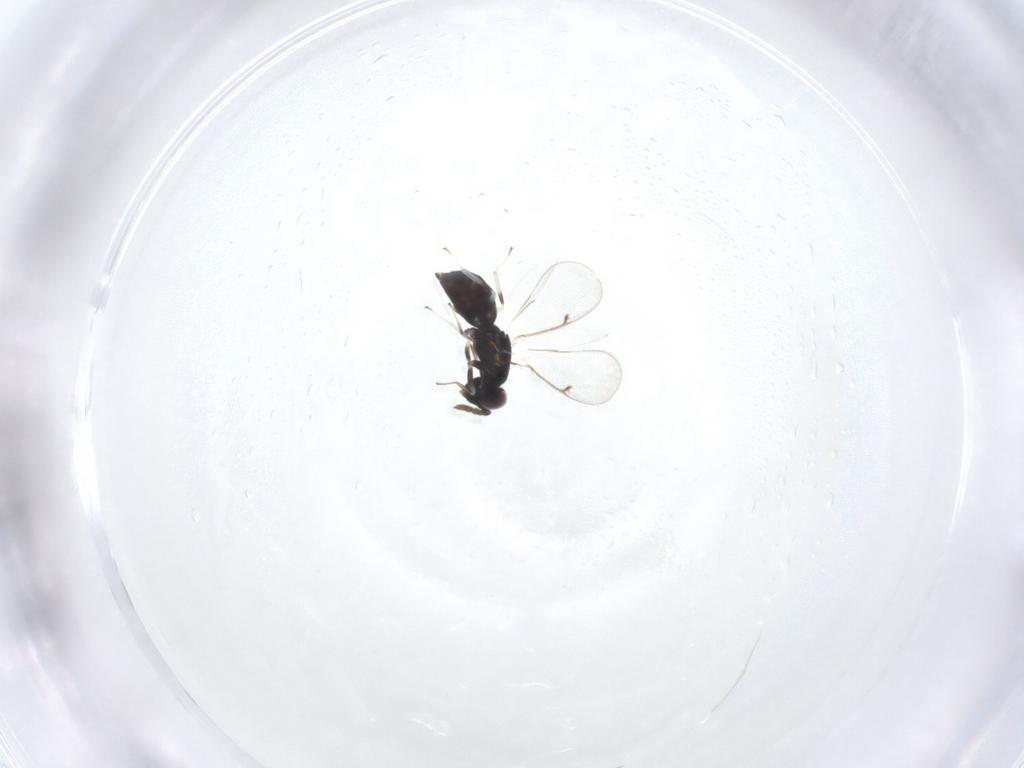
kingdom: Animalia
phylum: Arthropoda
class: Insecta
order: Hymenoptera
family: Eulophidae
